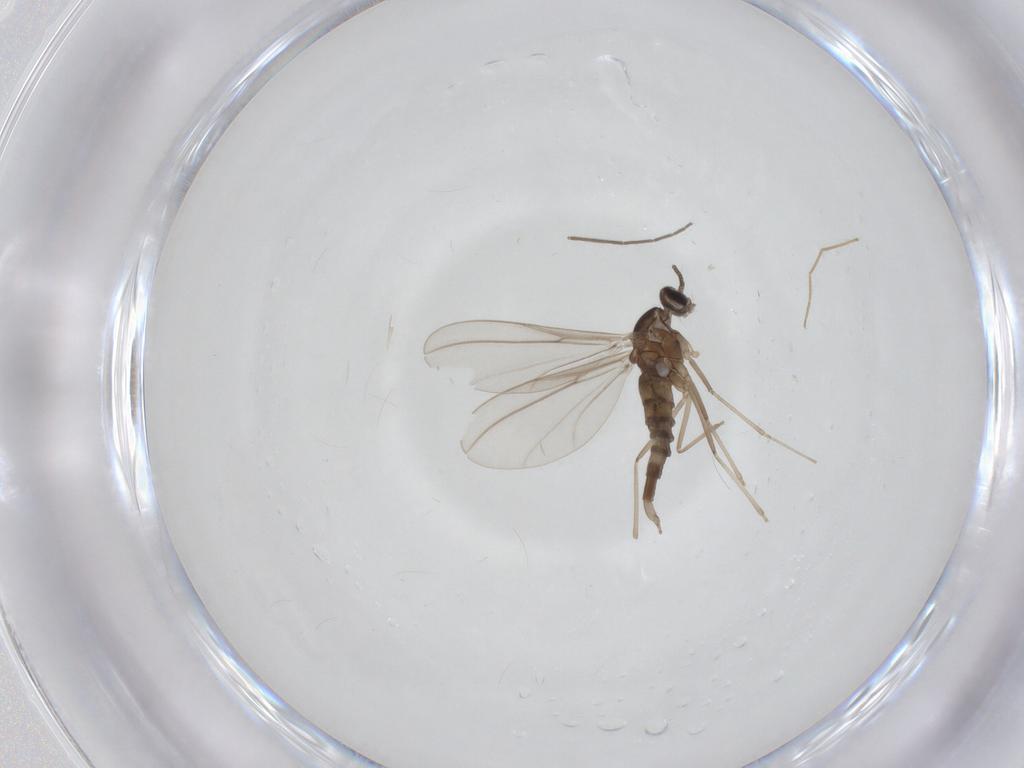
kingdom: Animalia
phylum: Arthropoda
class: Insecta
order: Diptera
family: Cecidomyiidae
